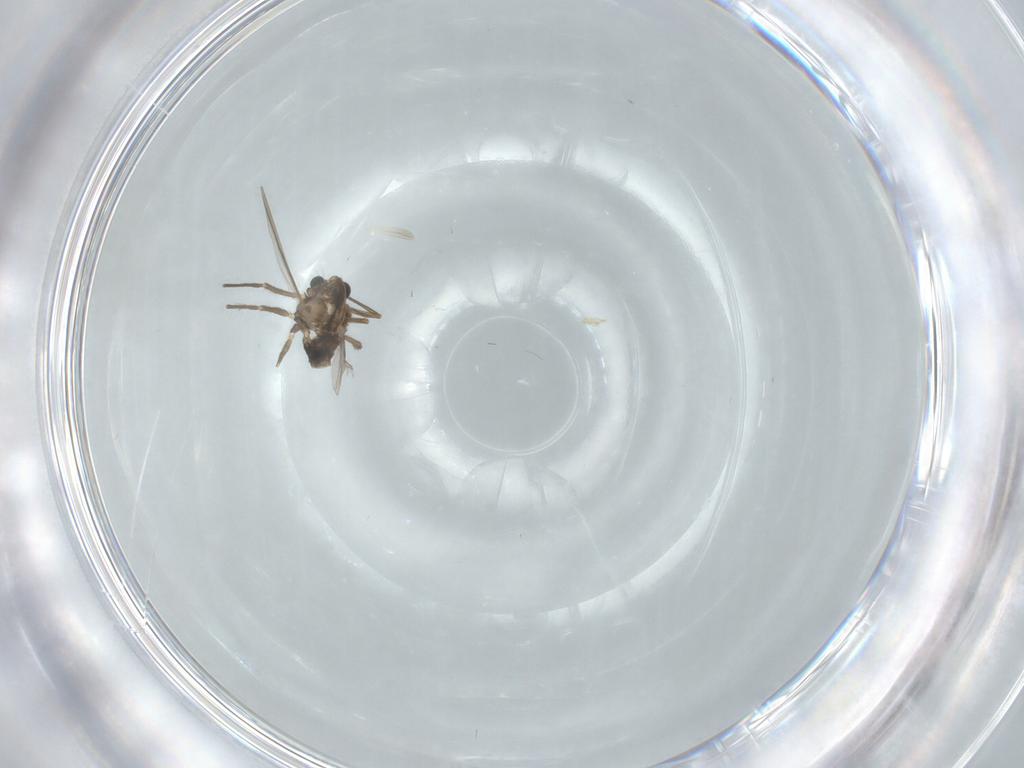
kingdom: Animalia
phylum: Arthropoda
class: Insecta
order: Diptera
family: Chironomidae
